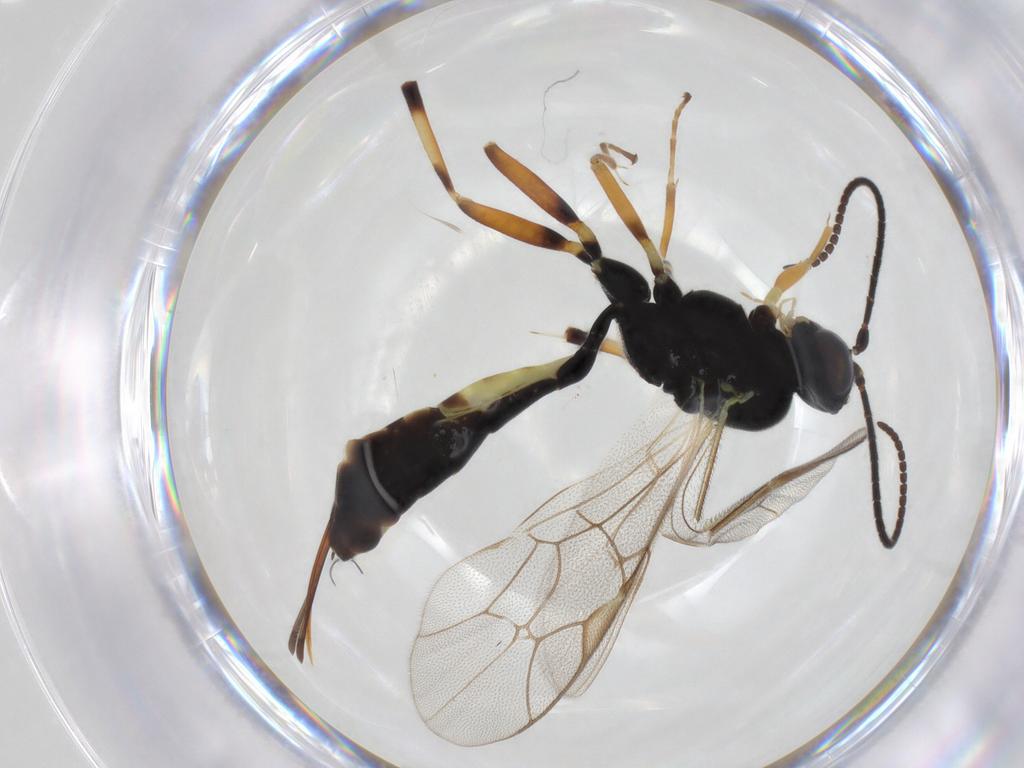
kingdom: Animalia
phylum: Arthropoda
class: Insecta
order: Hymenoptera
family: Ichneumonidae
